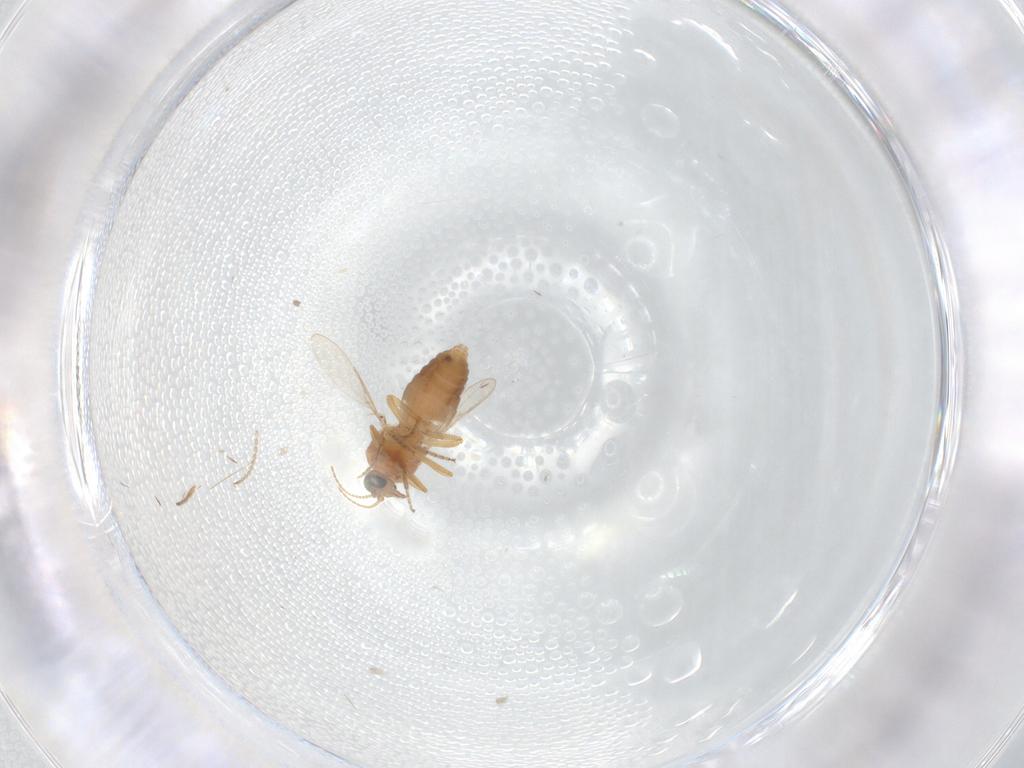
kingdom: Animalia
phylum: Arthropoda
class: Insecta
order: Diptera
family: Ceratopogonidae
